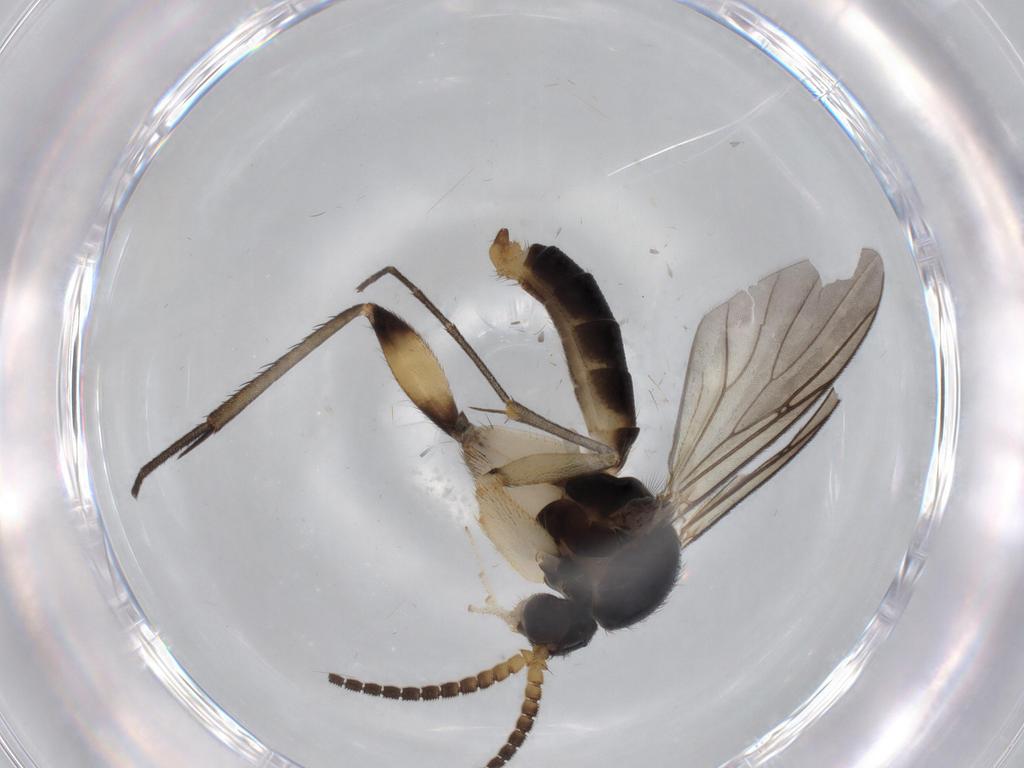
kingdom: Animalia
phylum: Arthropoda
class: Insecta
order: Diptera
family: Sciaridae
